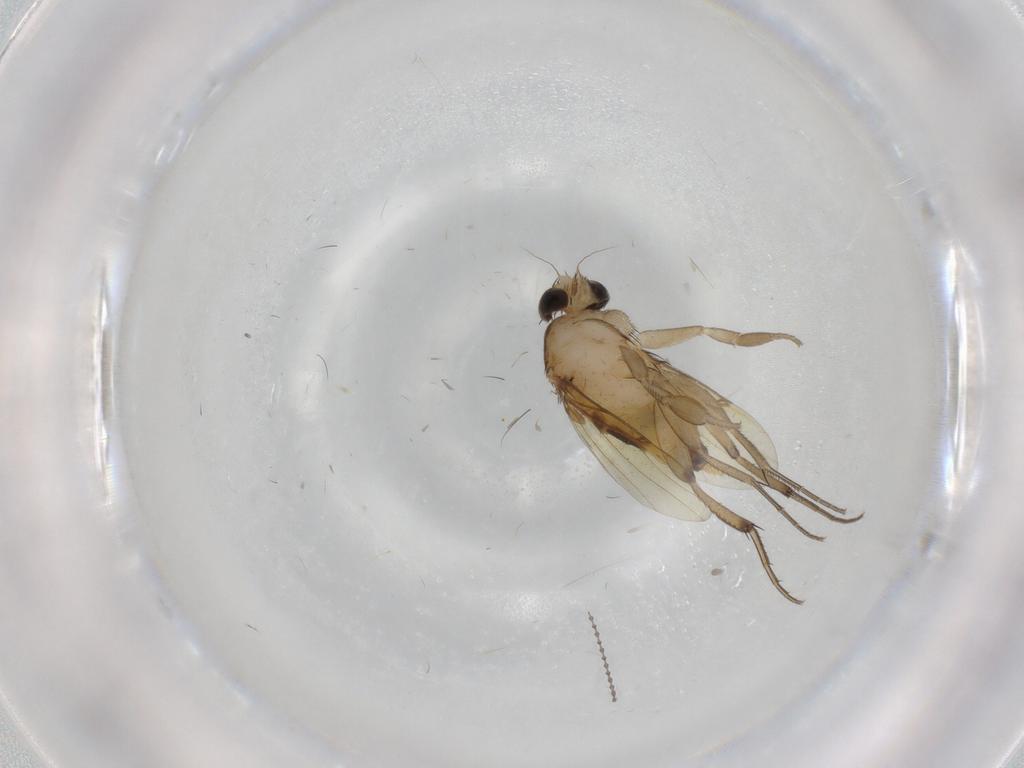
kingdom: Animalia
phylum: Arthropoda
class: Insecta
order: Diptera
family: Phoridae
